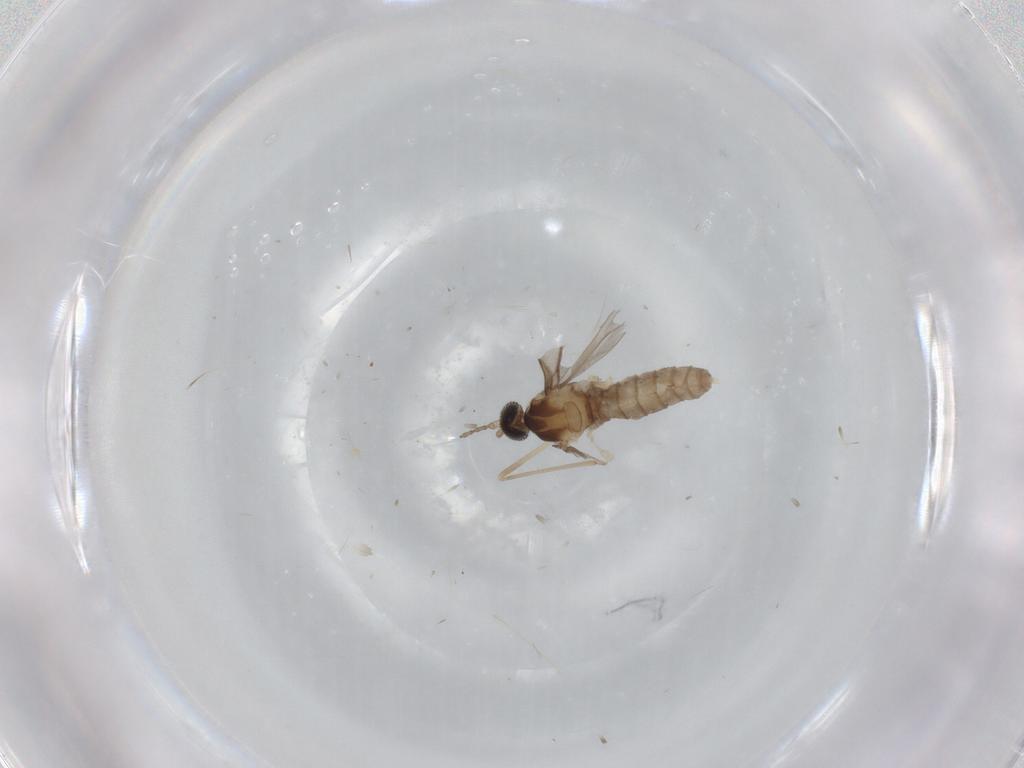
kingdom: Animalia
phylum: Arthropoda
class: Insecta
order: Diptera
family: Cecidomyiidae
